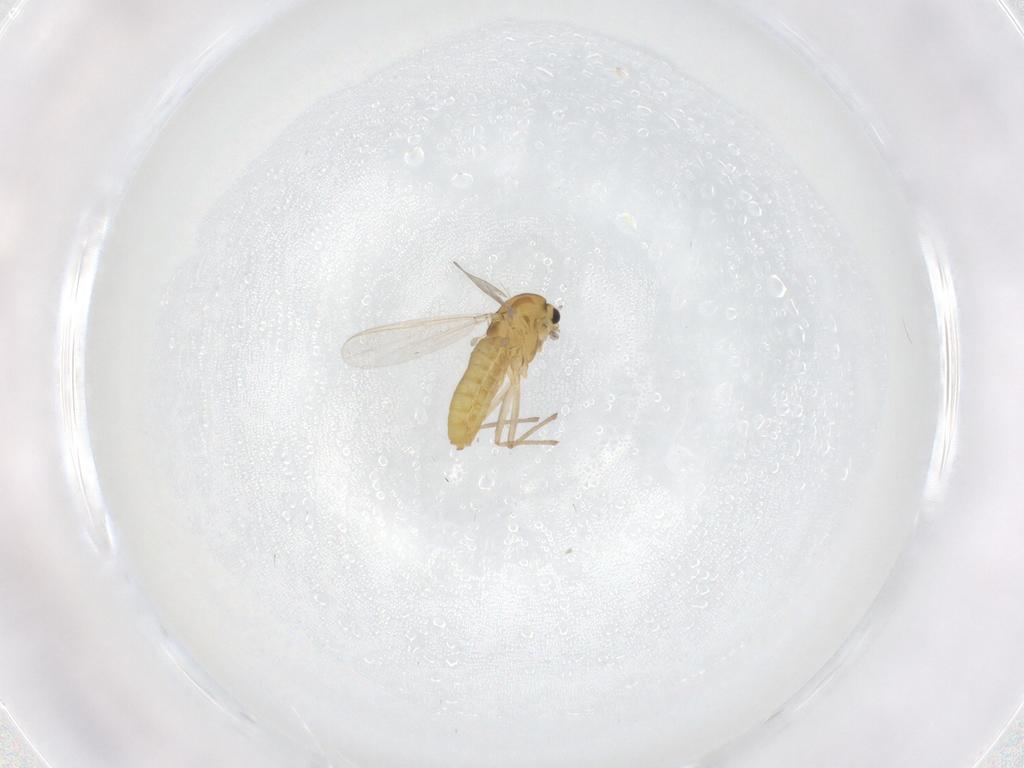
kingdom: Animalia
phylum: Arthropoda
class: Insecta
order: Diptera
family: Chironomidae
